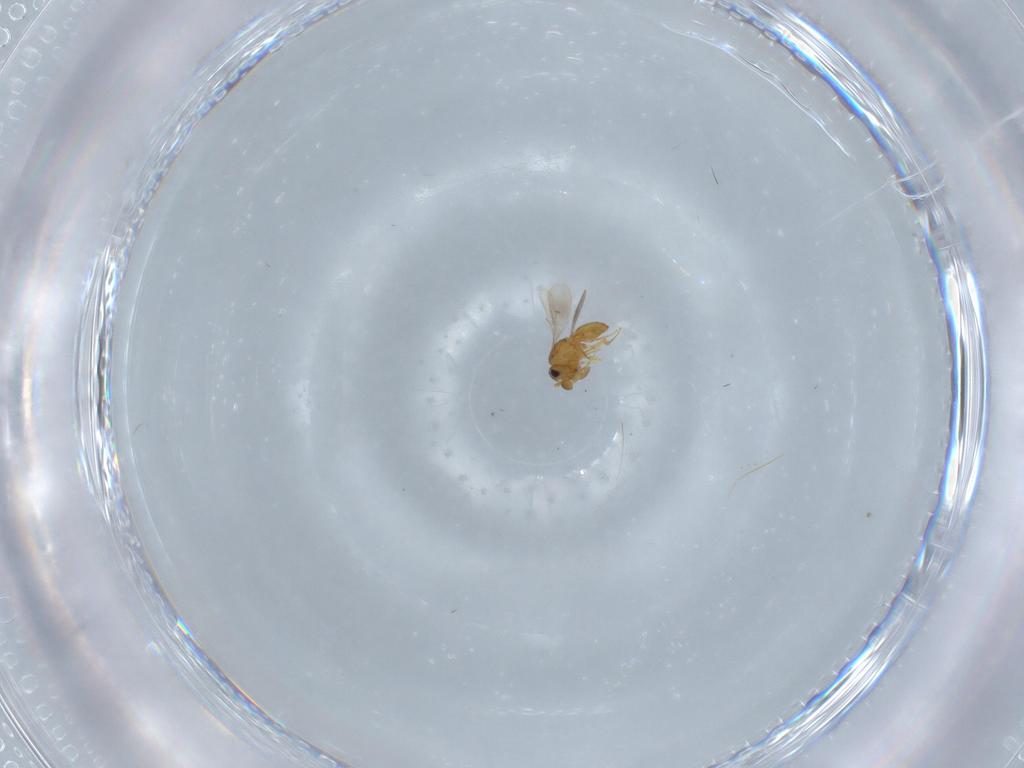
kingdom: Animalia
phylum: Arthropoda
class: Insecta
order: Hymenoptera
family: Scelionidae
